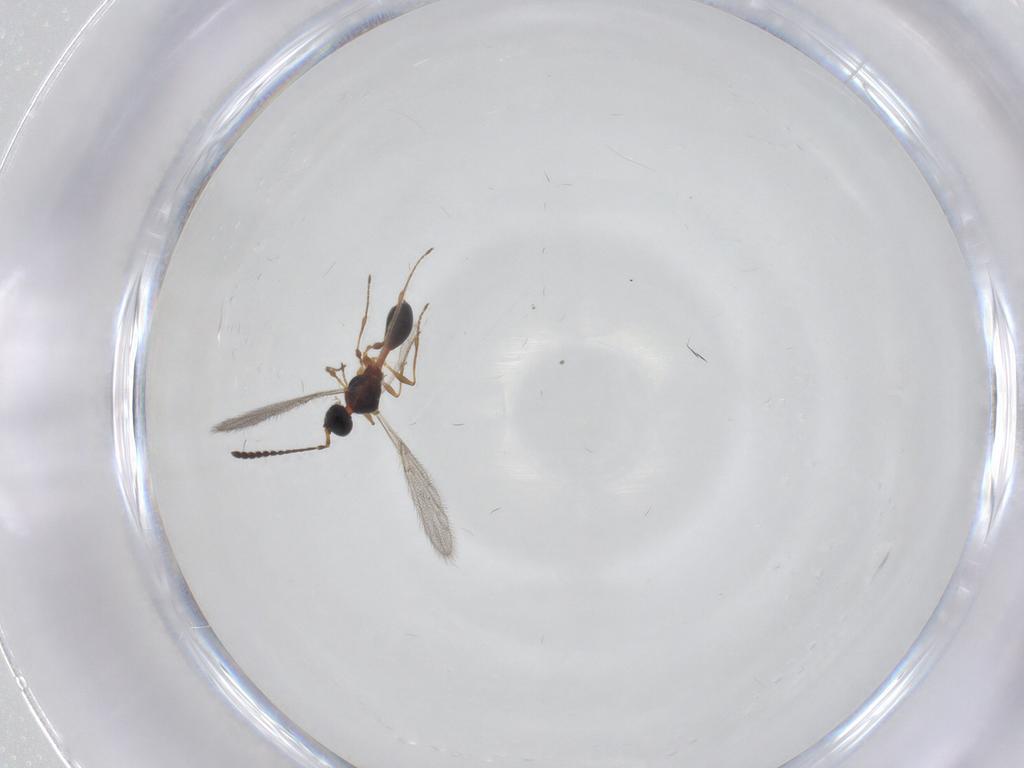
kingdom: Animalia
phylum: Arthropoda
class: Insecta
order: Hymenoptera
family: Diapriidae
